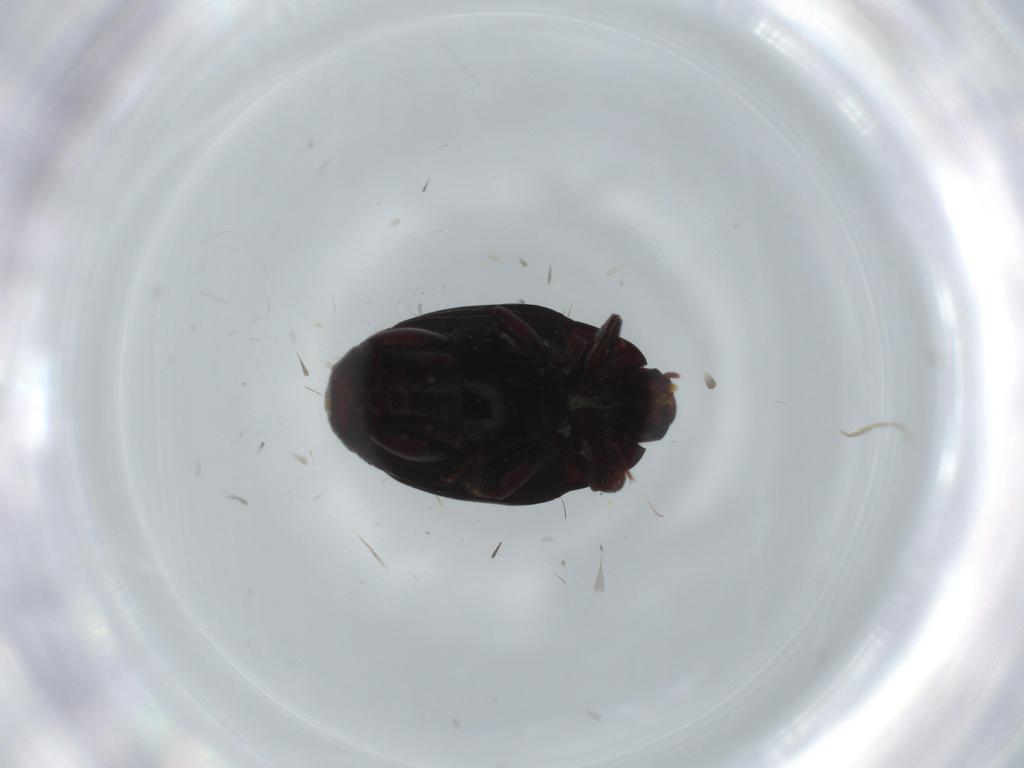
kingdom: Animalia
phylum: Arthropoda
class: Insecta
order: Coleoptera
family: Histeridae
